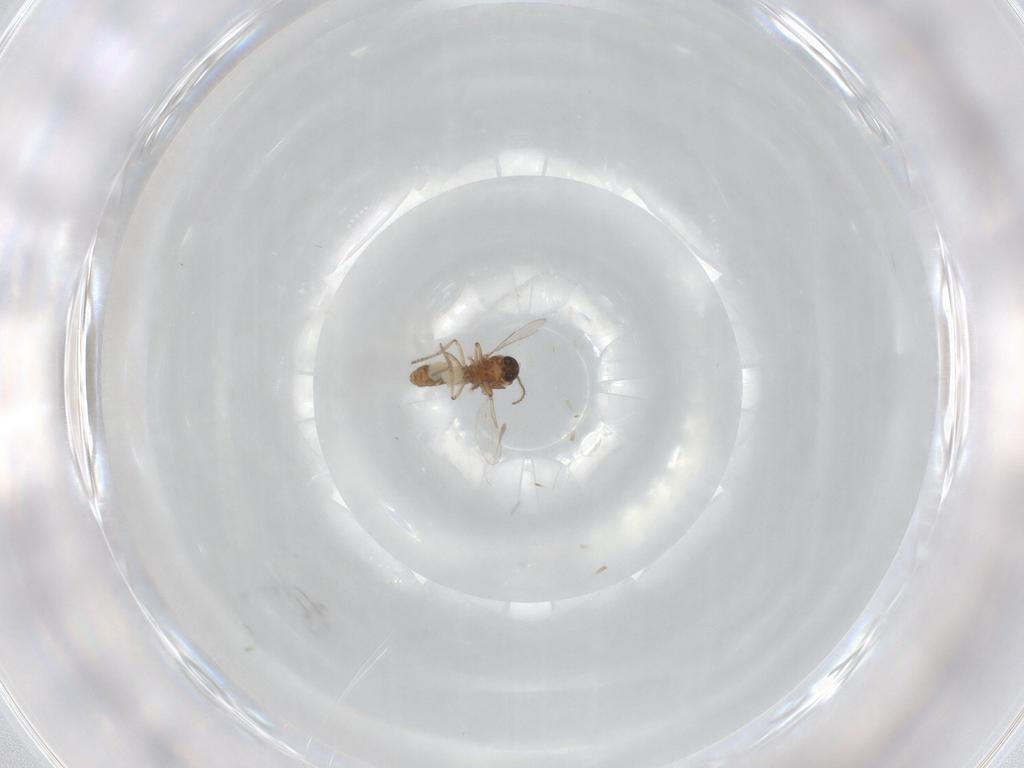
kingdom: Animalia
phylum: Arthropoda
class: Insecta
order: Diptera
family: Ceratopogonidae
